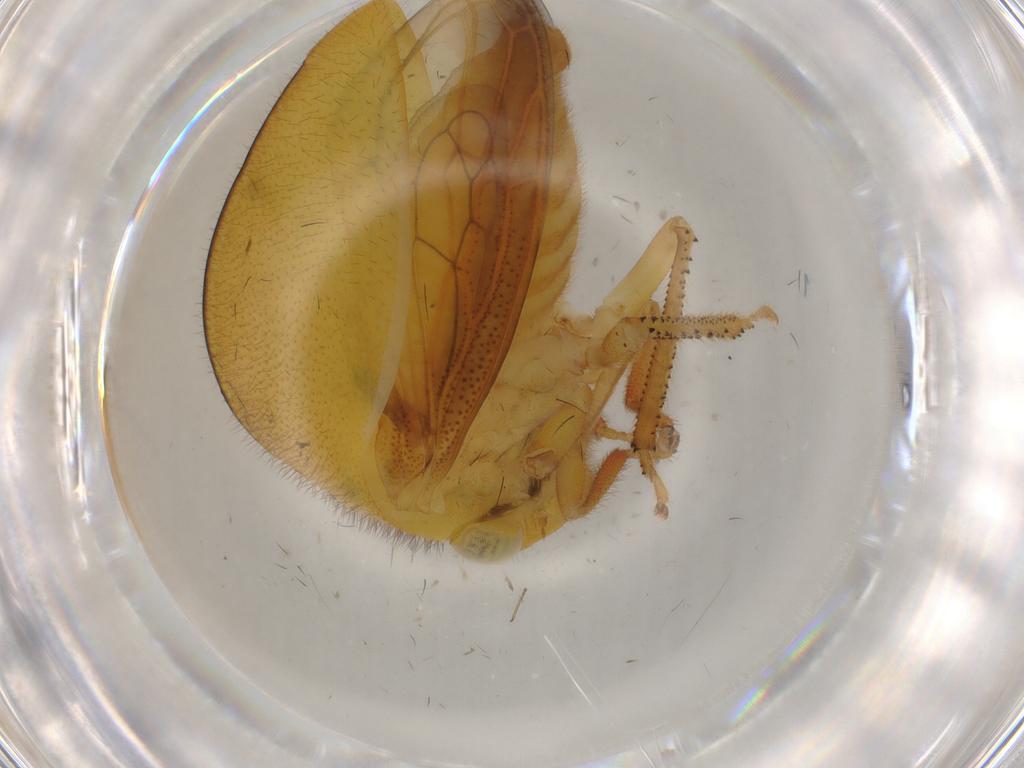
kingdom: Animalia
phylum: Arthropoda
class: Insecta
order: Hemiptera
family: Membracidae
